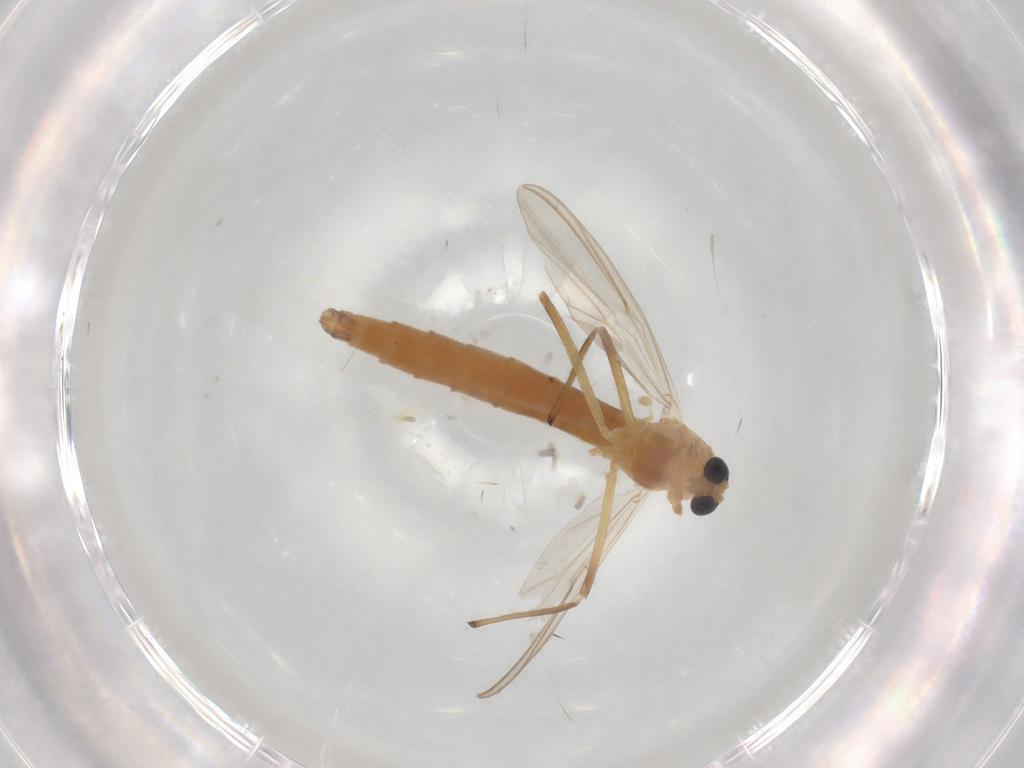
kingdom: Animalia
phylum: Arthropoda
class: Insecta
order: Diptera
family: Chironomidae
